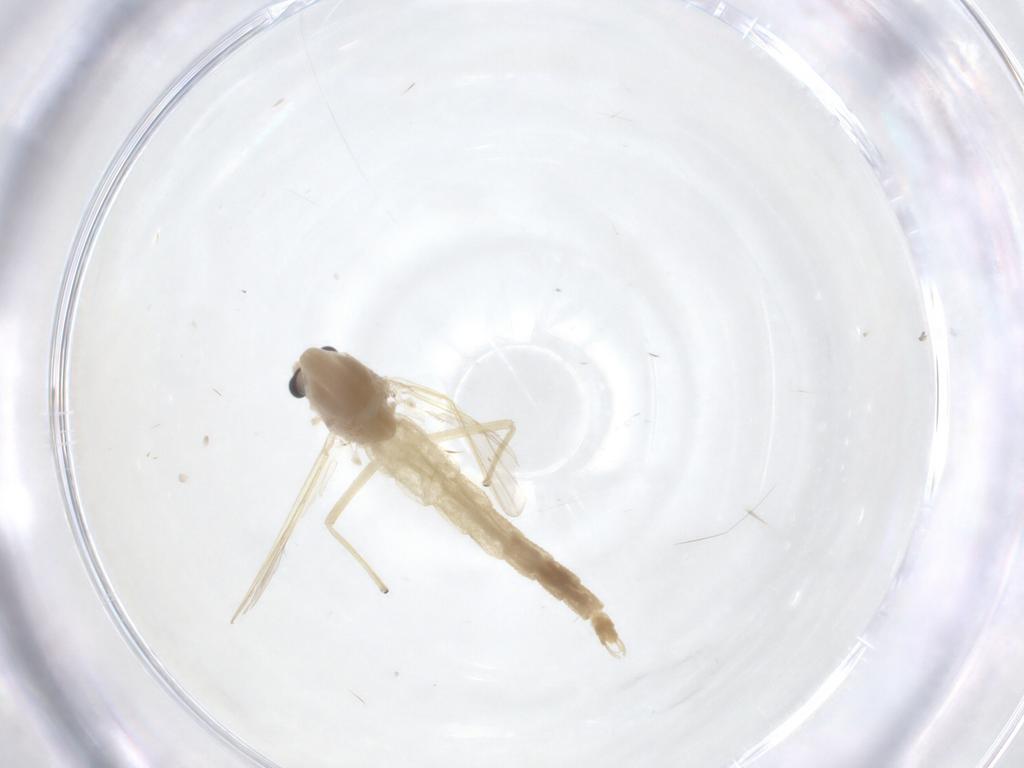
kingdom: Animalia
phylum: Arthropoda
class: Insecta
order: Diptera
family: Chironomidae
